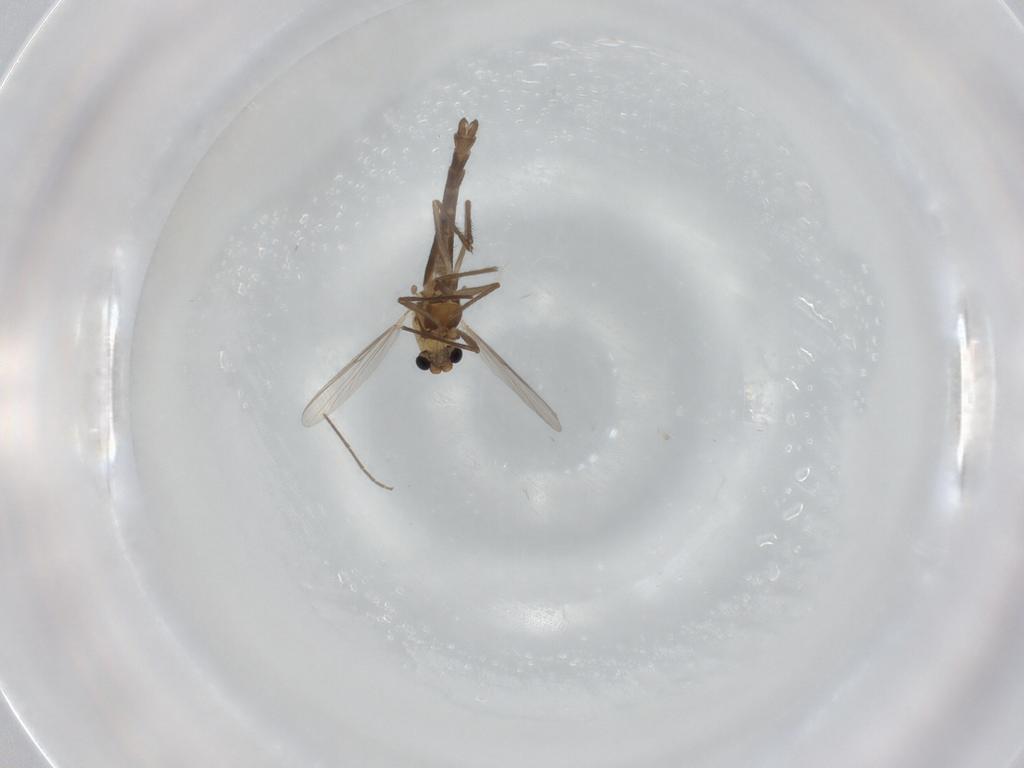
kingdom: Animalia
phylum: Arthropoda
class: Insecta
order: Diptera
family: Chironomidae
